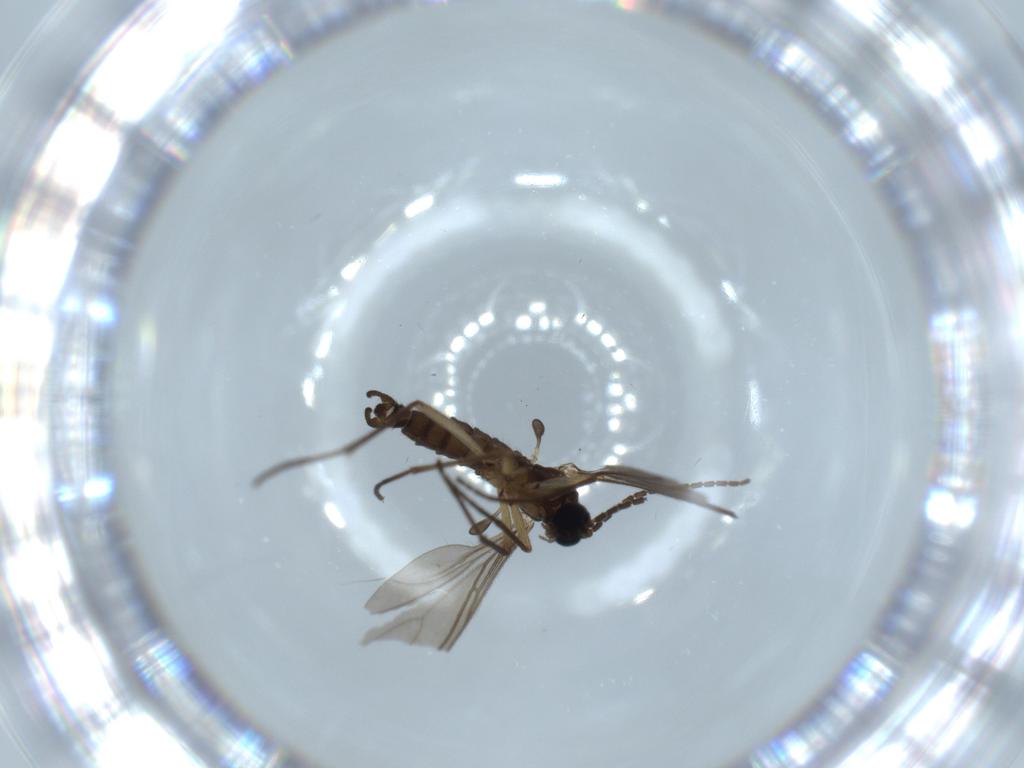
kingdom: Animalia
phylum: Arthropoda
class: Insecta
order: Diptera
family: Sciaridae
